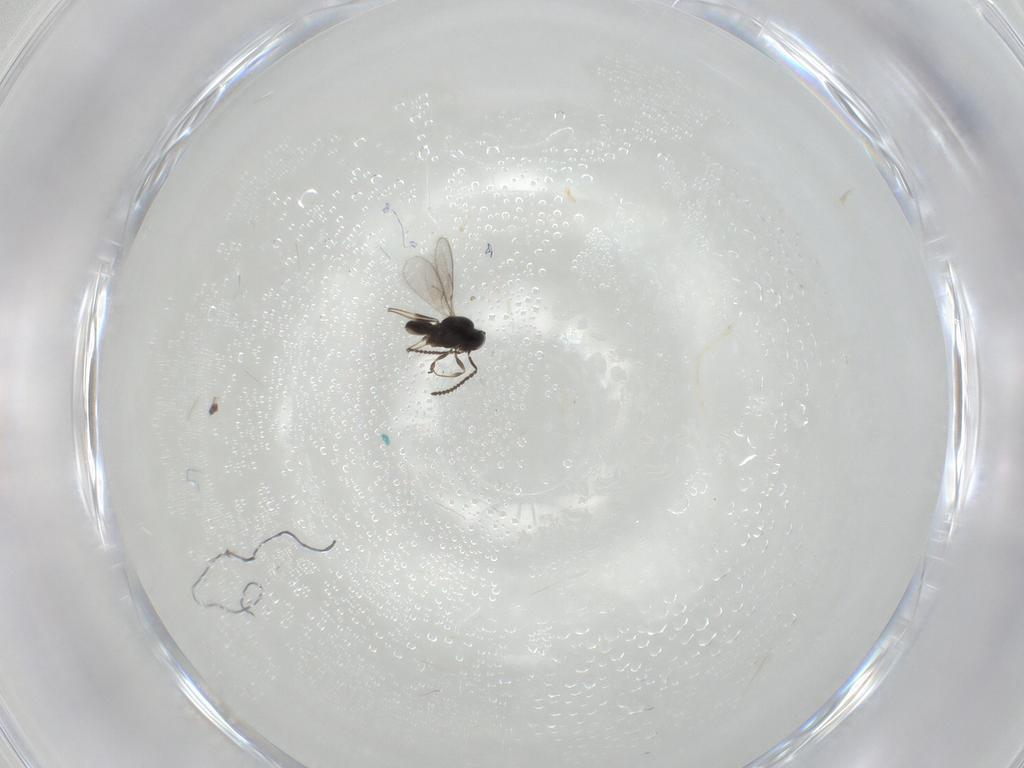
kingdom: Animalia
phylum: Arthropoda
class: Insecta
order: Hymenoptera
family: Scelionidae
